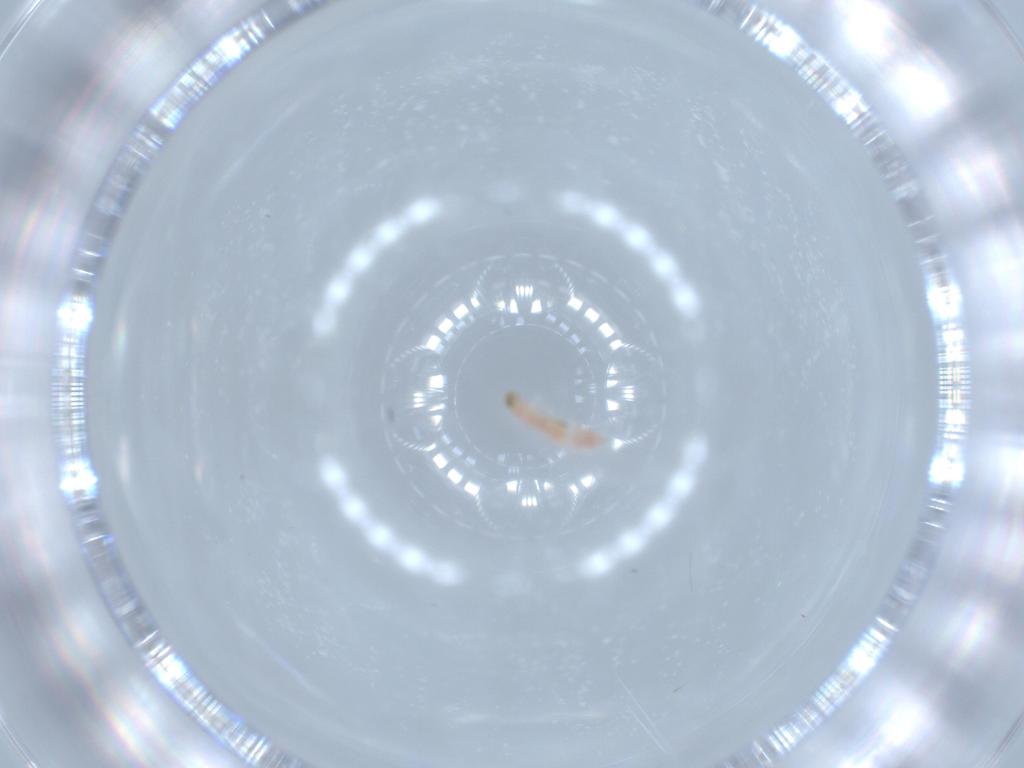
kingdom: Animalia
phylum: Arthropoda
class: Insecta
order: Coleoptera
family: Melyridae
